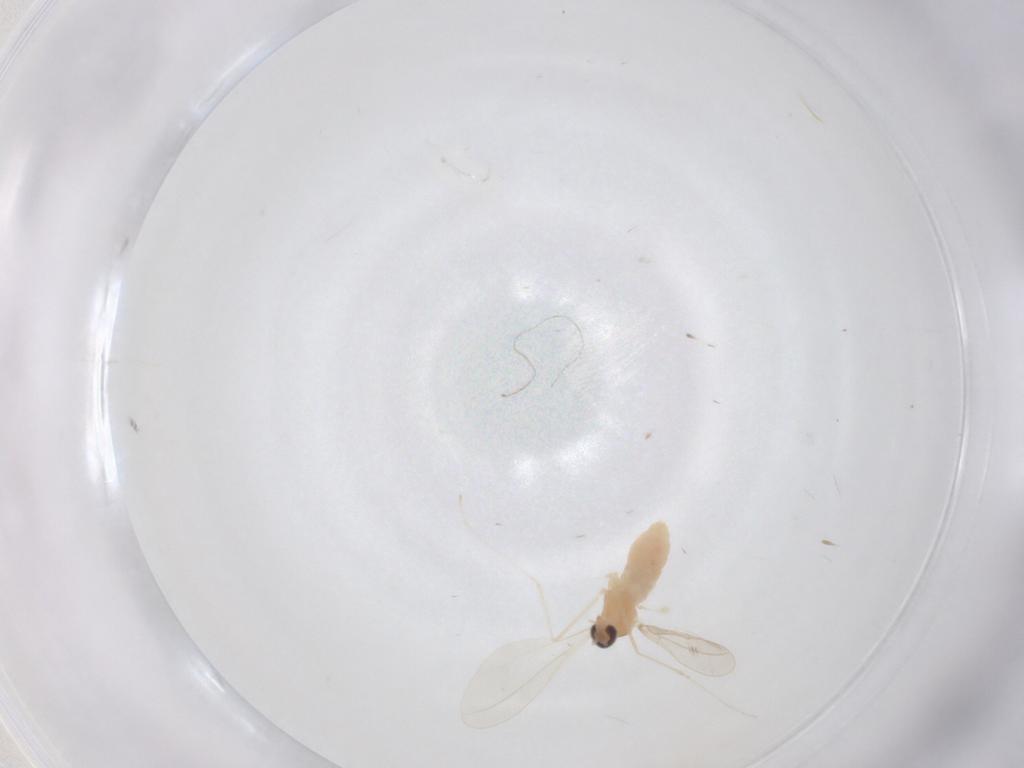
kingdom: Animalia
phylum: Arthropoda
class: Insecta
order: Diptera
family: Cecidomyiidae
